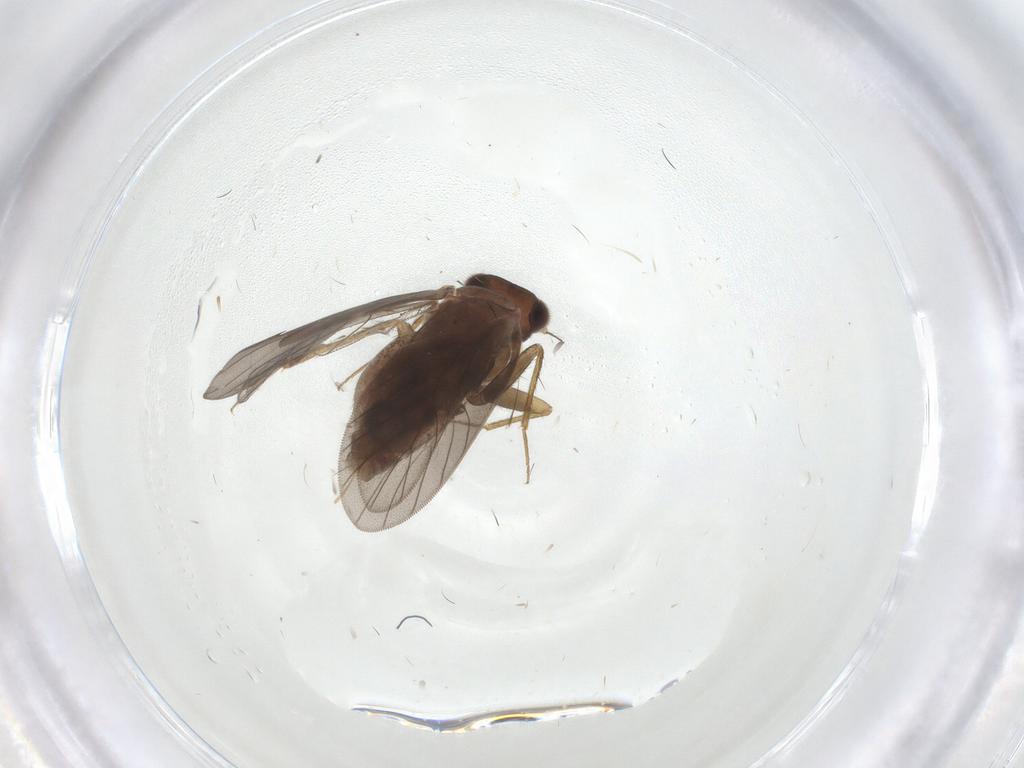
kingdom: Animalia
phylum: Arthropoda
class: Insecta
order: Psocodea
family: Lepidopsocidae
